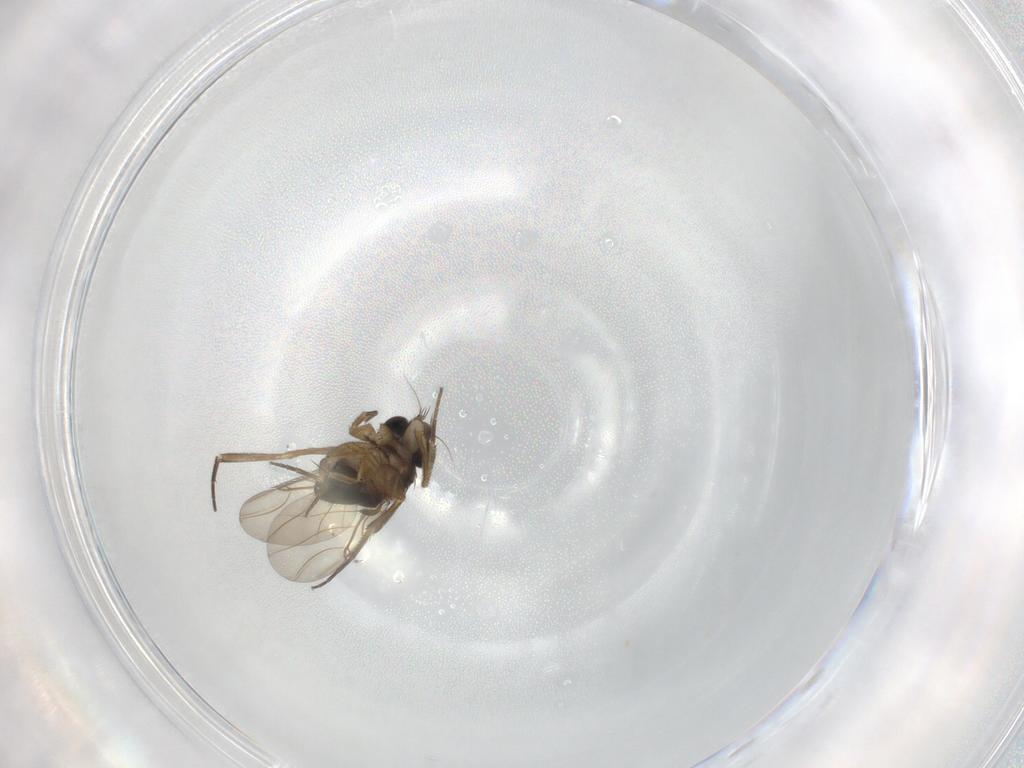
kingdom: Animalia
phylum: Arthropoda
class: Insecta
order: Diptera
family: Phoridae
